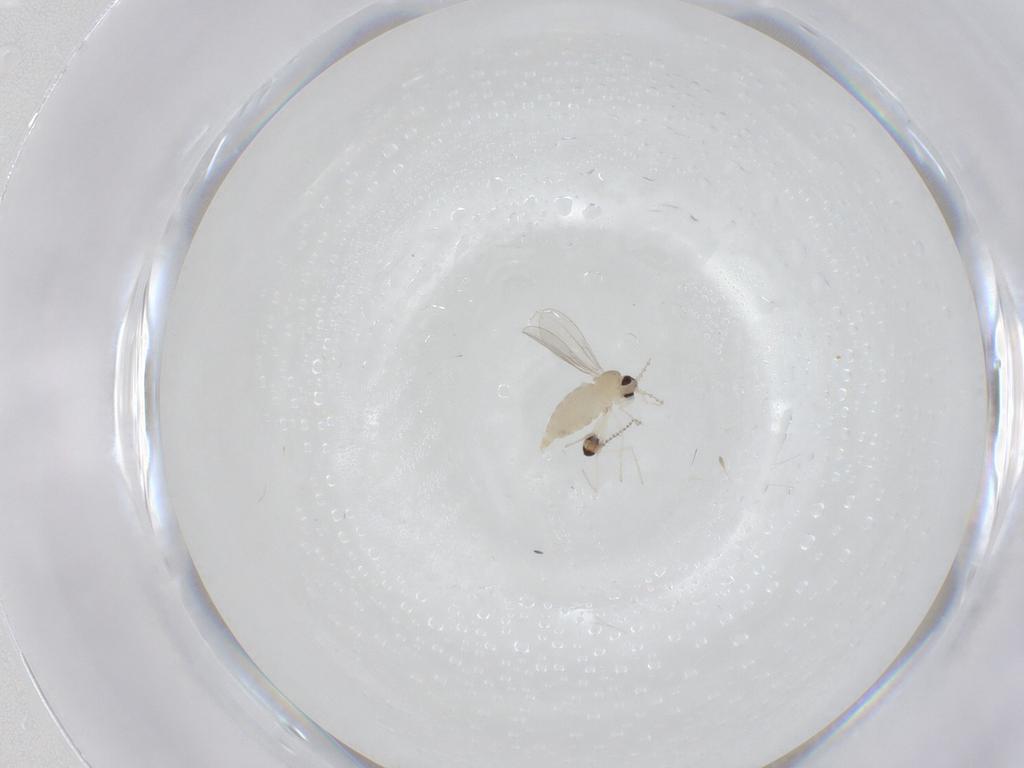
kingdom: Animalia
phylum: Arthropoda
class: Insecta
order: Diptera
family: Cecidomyiidae
